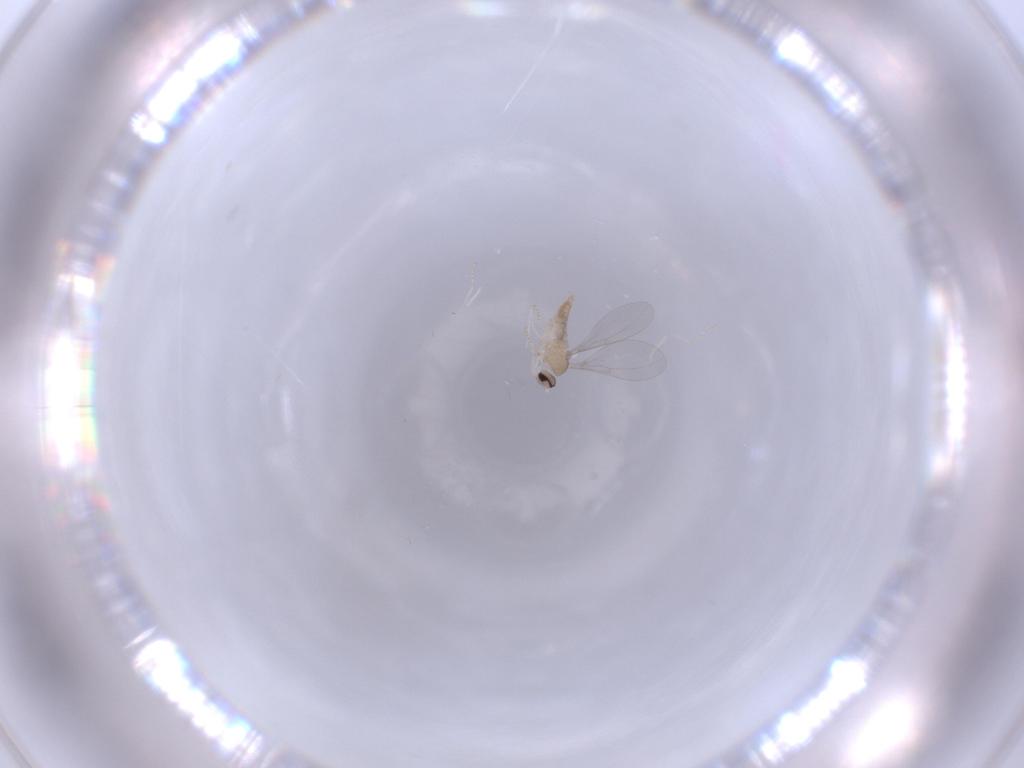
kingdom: Animalia
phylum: Arthropoda
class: Insecta
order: Diptera
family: Cecidomyiidae
